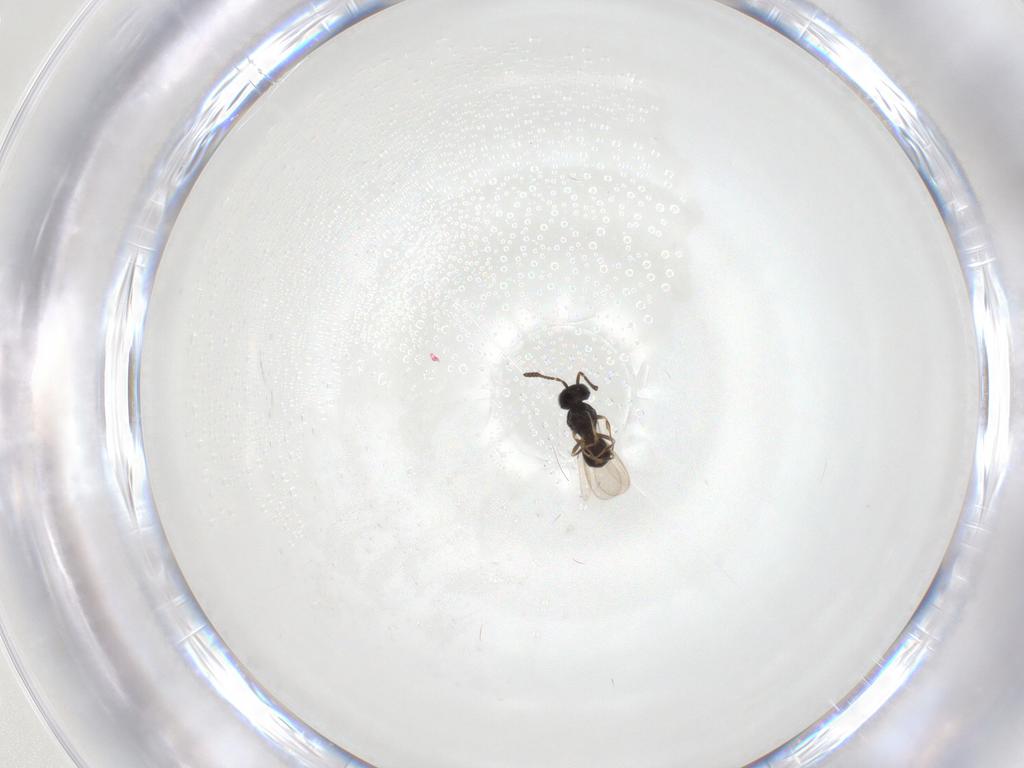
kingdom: Animalia
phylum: Arthropoda
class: Insecta
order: Hymenoptera
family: Scelionidae
